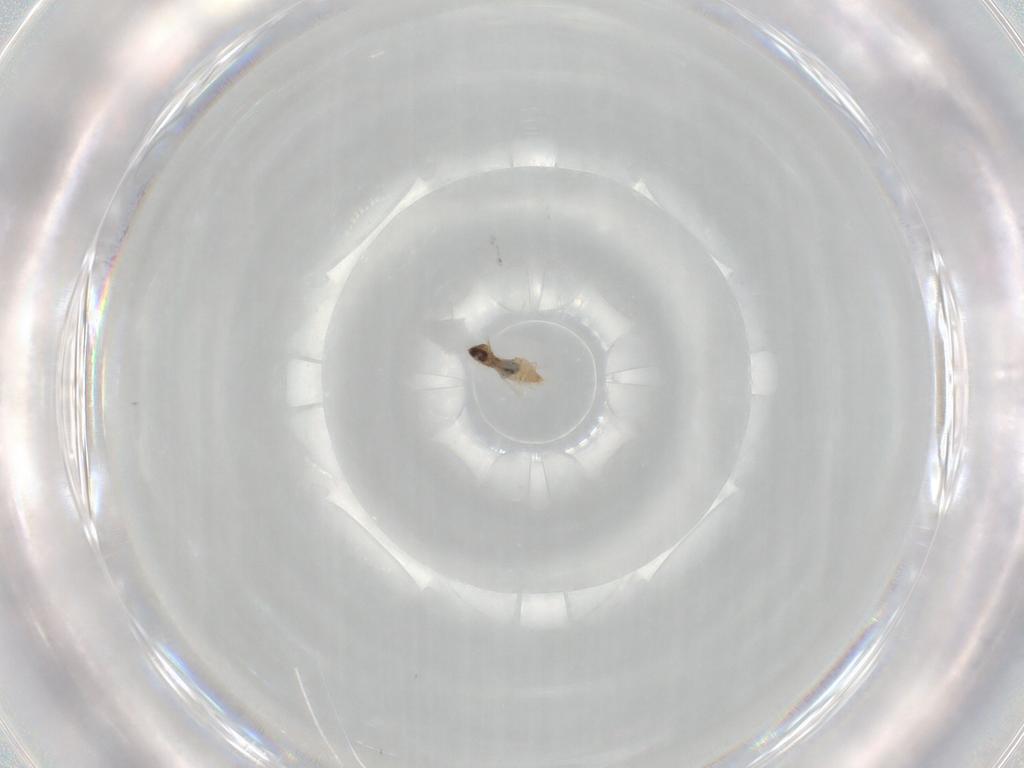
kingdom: Animalia
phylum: Arthropoda
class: Insecta
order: Diptera
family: Cecidomyiidae
